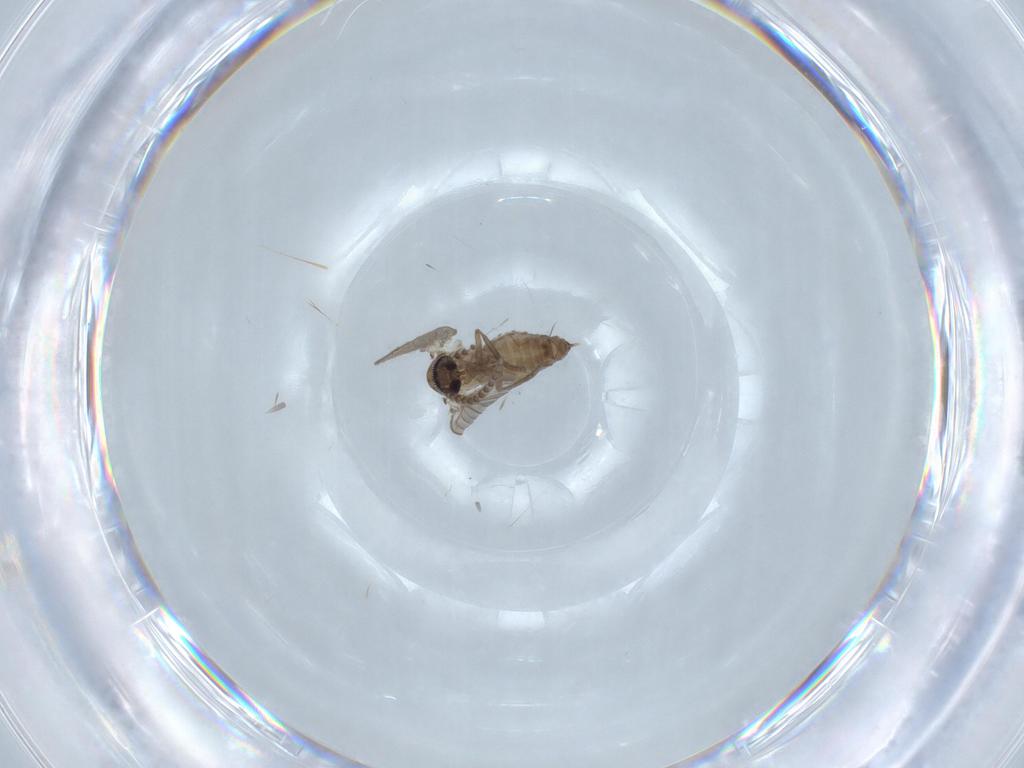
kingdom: Animalia
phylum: Arthropoda
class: Insecta
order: Diptera
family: Psychodidae
